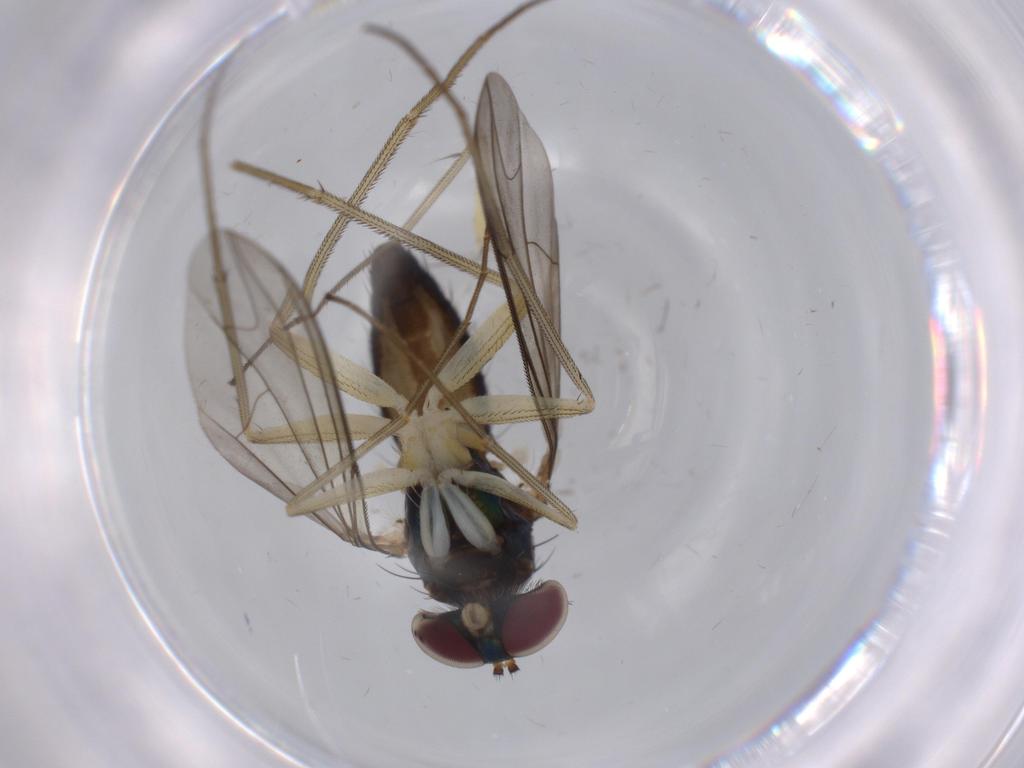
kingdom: Animalia
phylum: Arthropoda
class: Insecta
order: Diptera
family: Dolichopodidae
